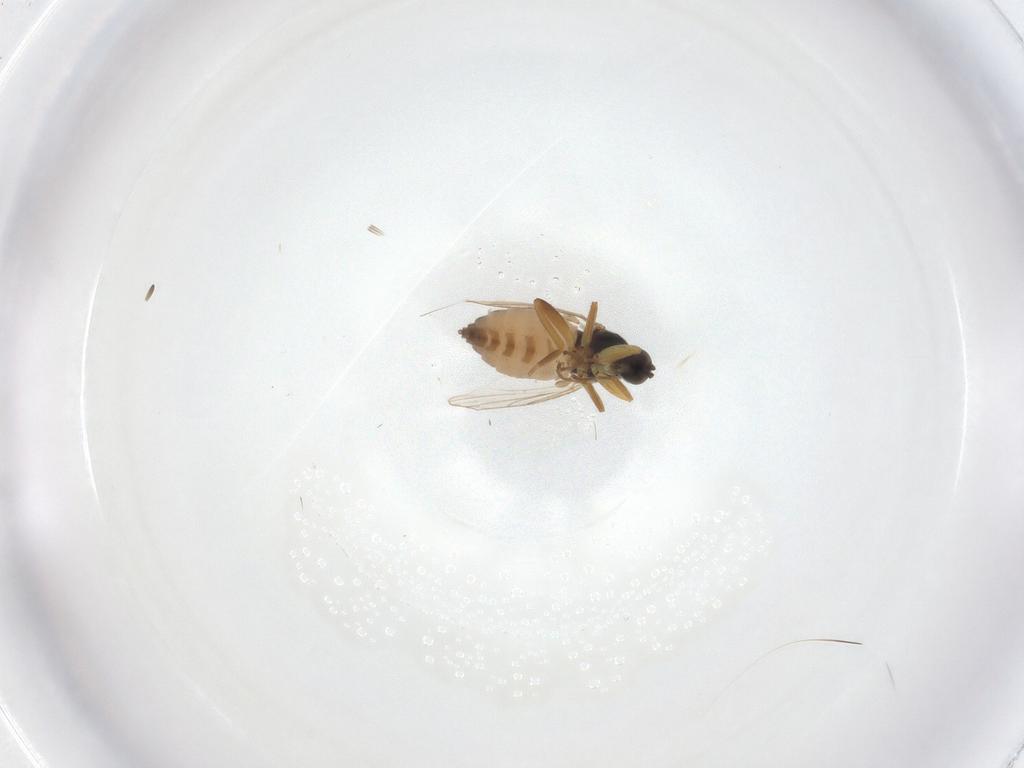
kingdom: Animalia
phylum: Arthropoda
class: Insecta
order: Diptera
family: Hybotidae
